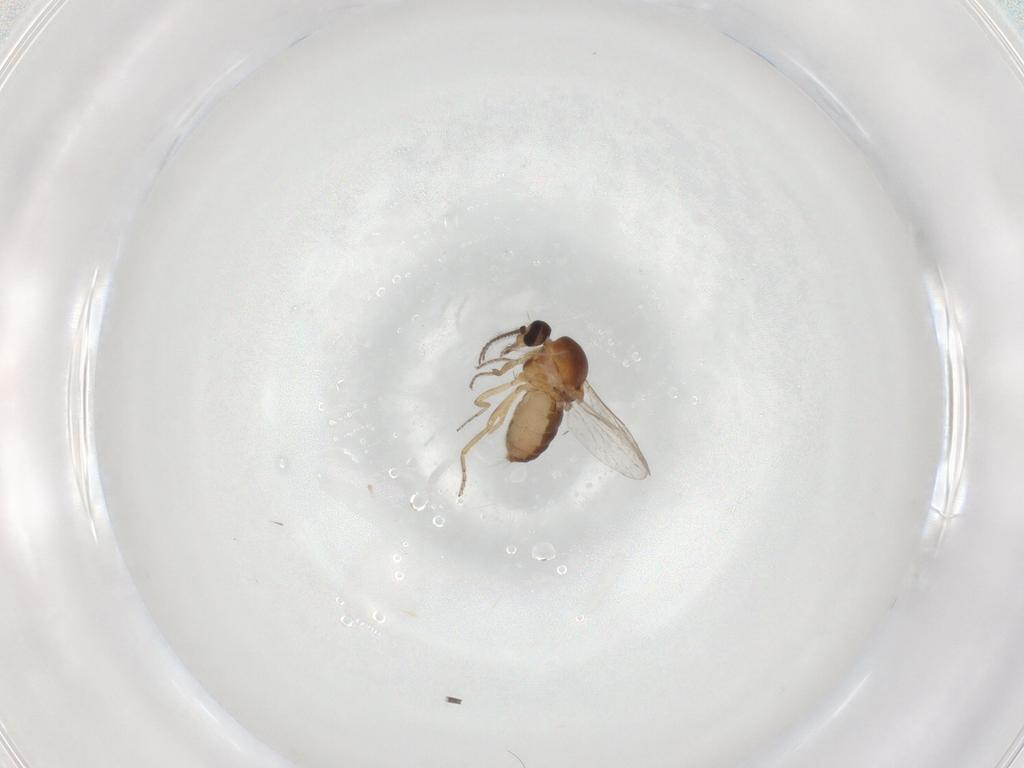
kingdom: Animalia
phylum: Arthropoda
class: Insecta
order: Diptera
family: Ceratopogonidae
